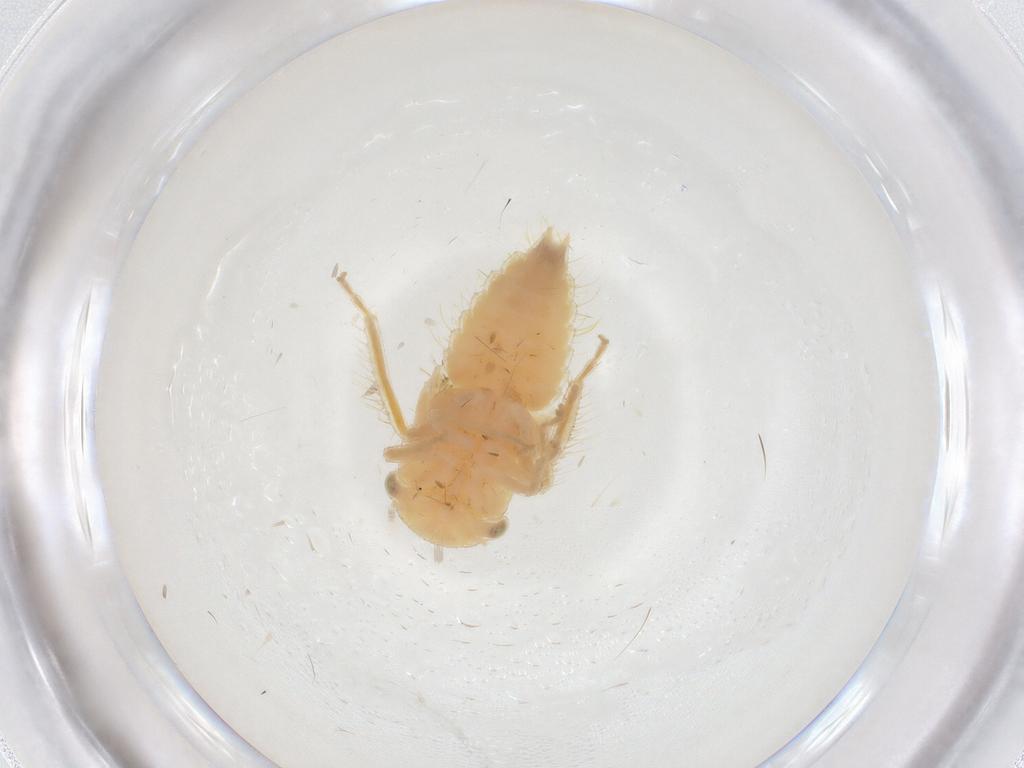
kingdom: Animalia
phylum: Arthropoda
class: Insecta
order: Hemiptera
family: Cicadellidae
